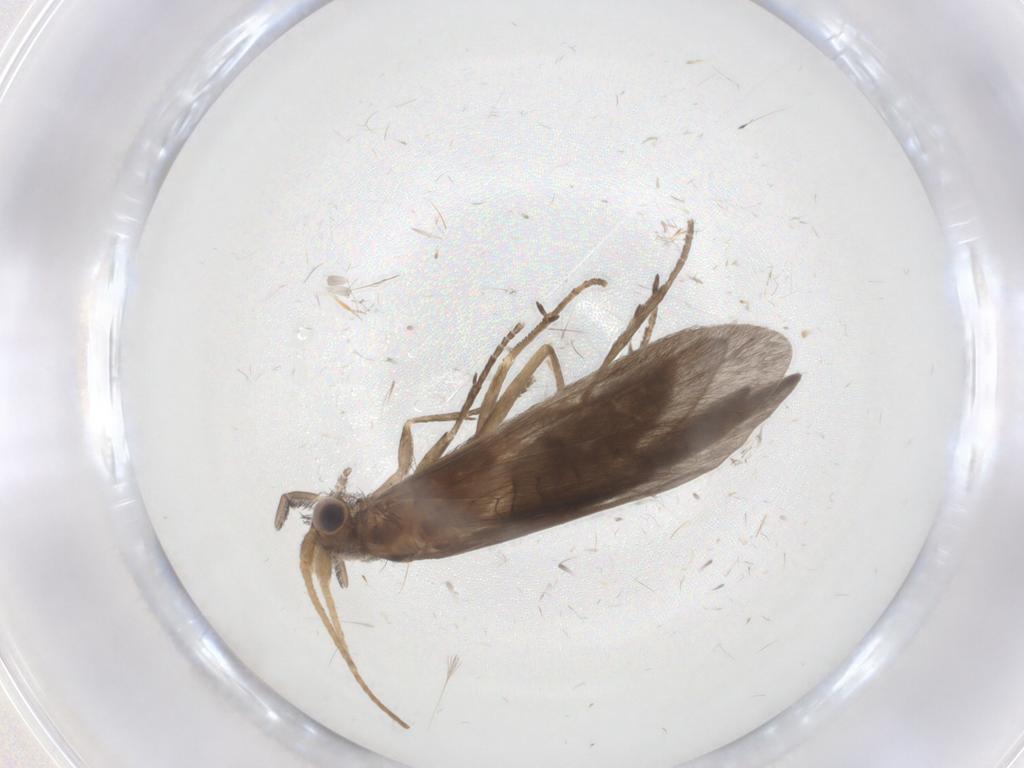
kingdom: Animalia
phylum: Arthropoda
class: Insecta
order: Trichoptera
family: Helicopsychidae
